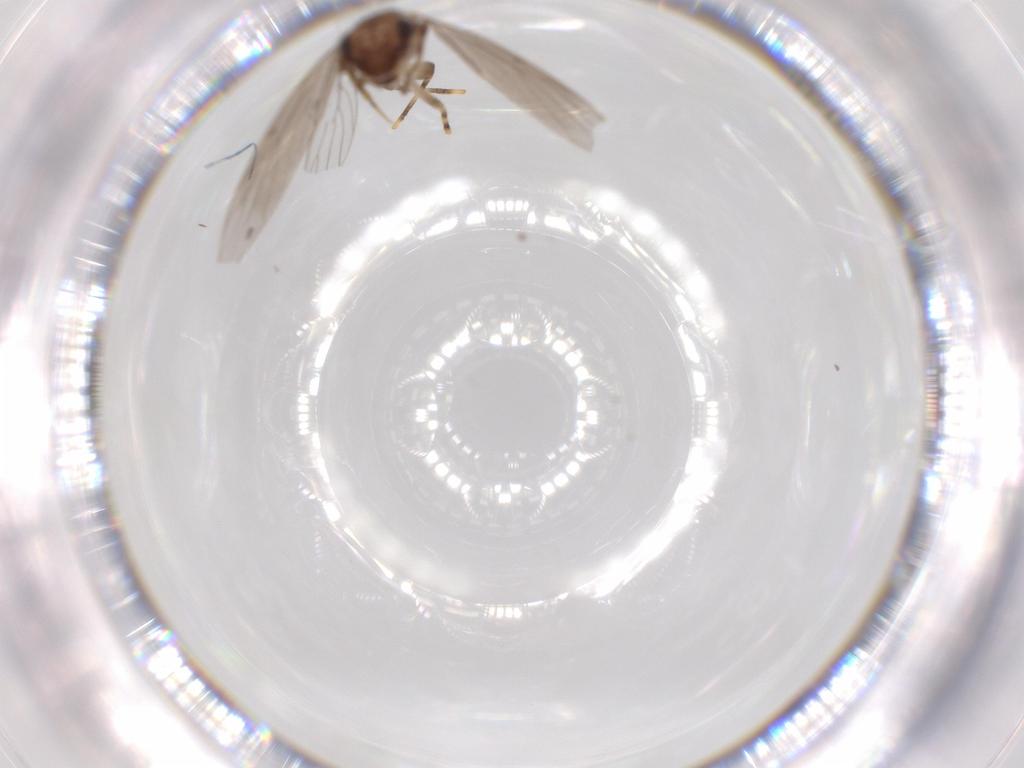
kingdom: Animalia
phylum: Arthropoda
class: Insecta
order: Psocodea
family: Lepidopsocidae
